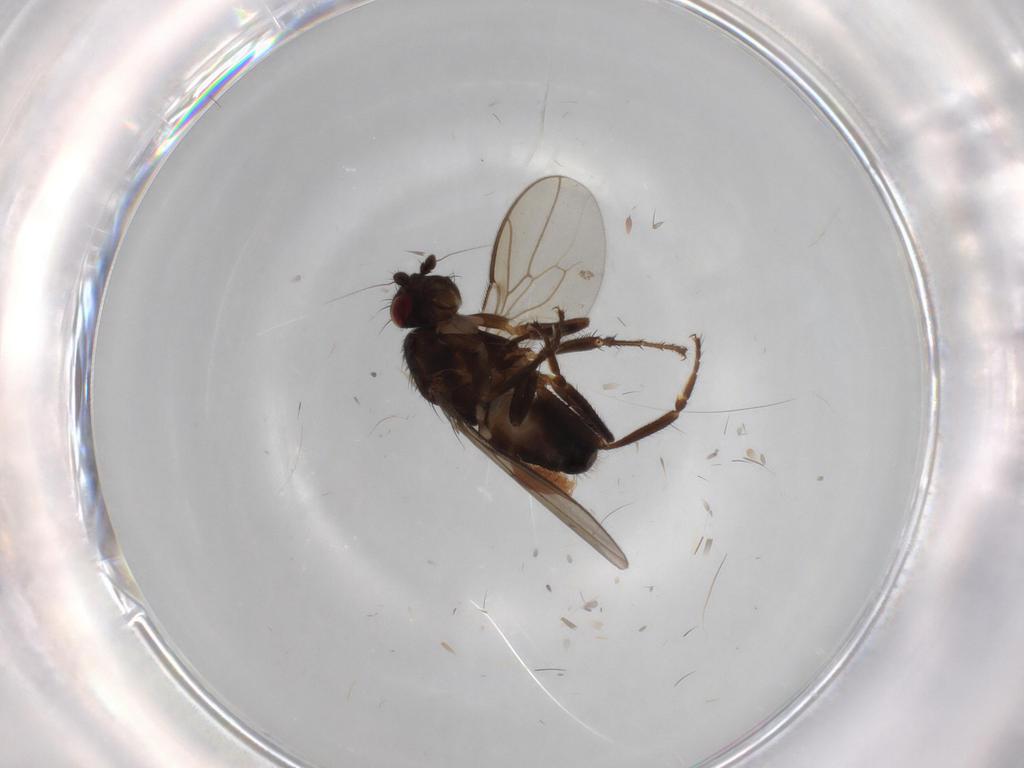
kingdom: Animalia
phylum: Arthropoda
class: Insecta
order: Diptera
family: Sphaeroceridae
